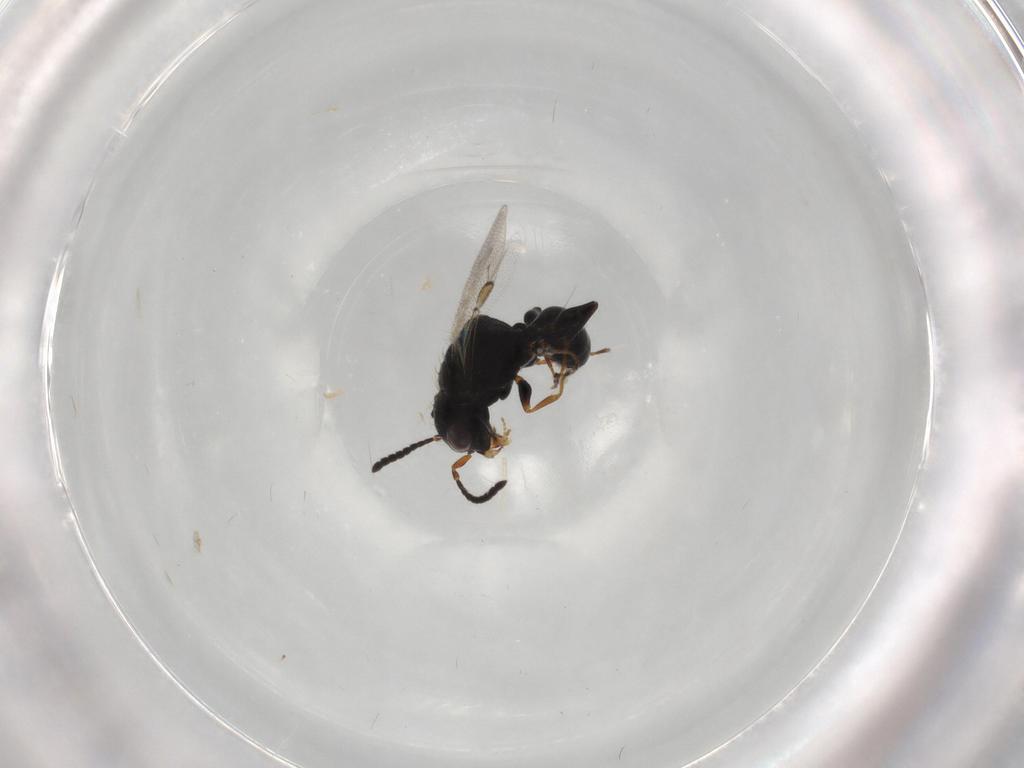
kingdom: Animalia
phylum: Arthropoda
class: Insecta
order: Hymenoptera
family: Dryinidae
